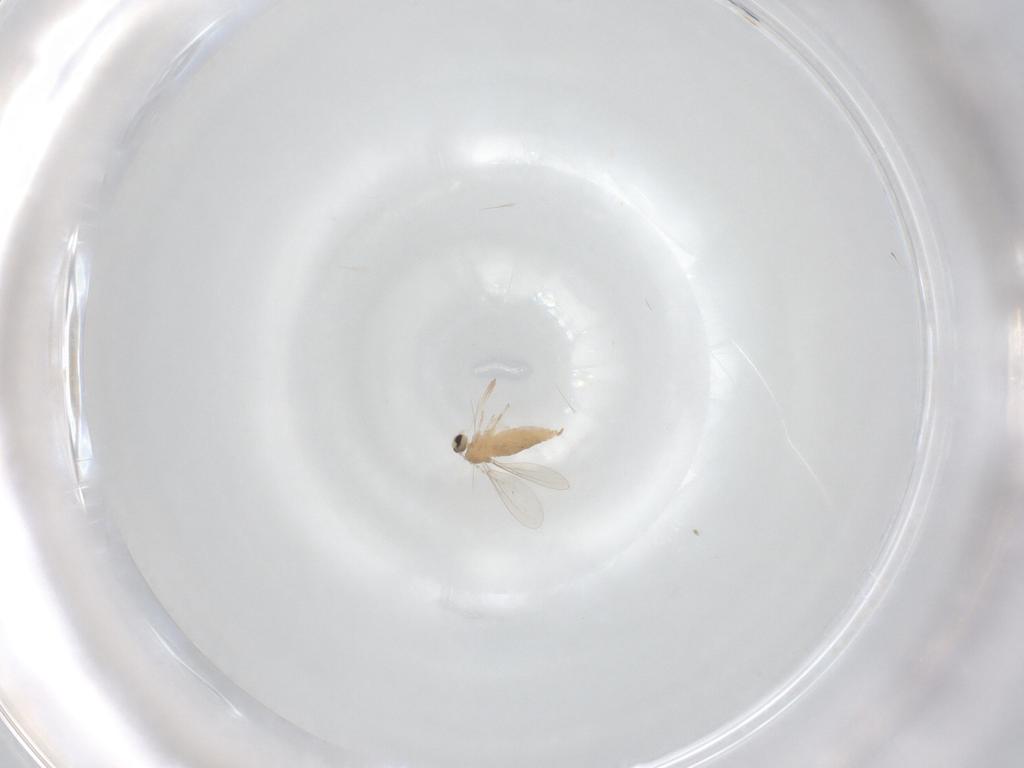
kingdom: Animalia
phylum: Arthropoda
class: Insecta
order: Diptera
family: Cecidomyiidae
